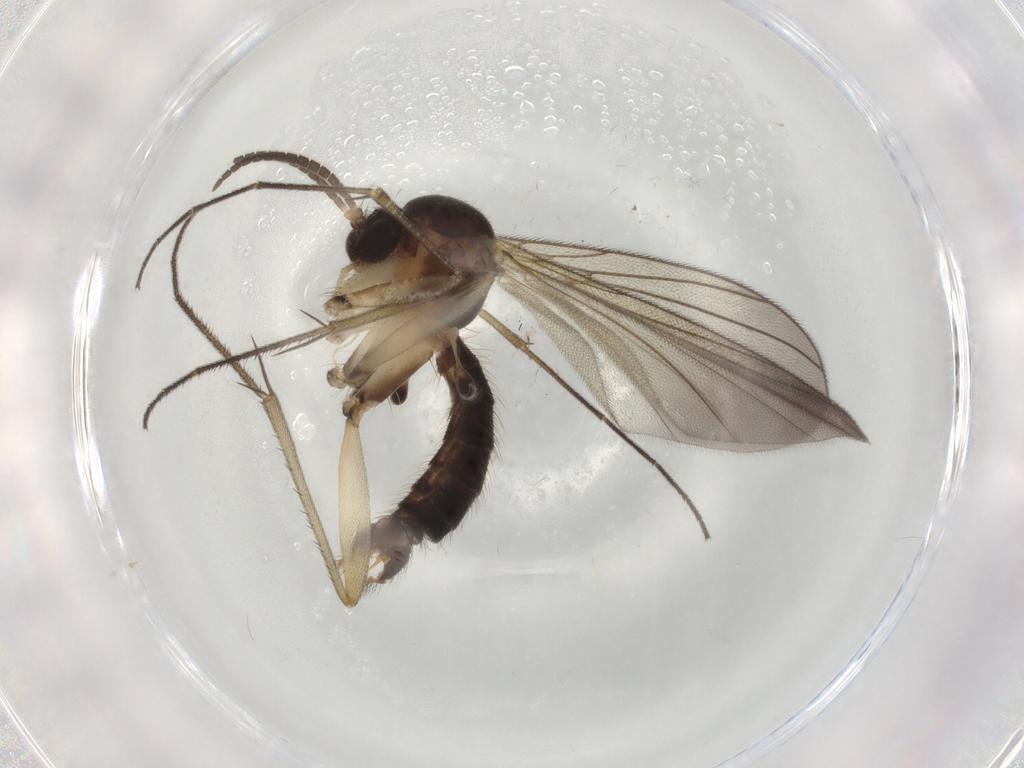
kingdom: Animalia
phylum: Arthropoda
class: Insecta
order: Diptera
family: Mycetophilidae
